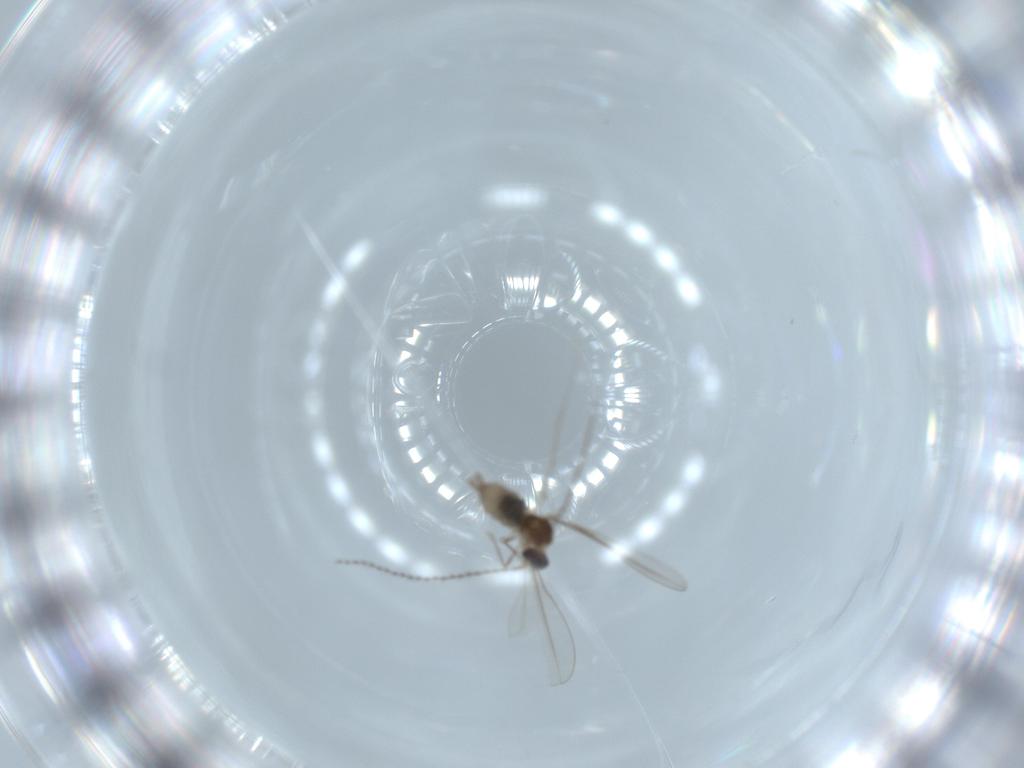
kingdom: Animalia
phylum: Arthropoda
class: Insecta
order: Diptera
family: Cecidomyiidae
